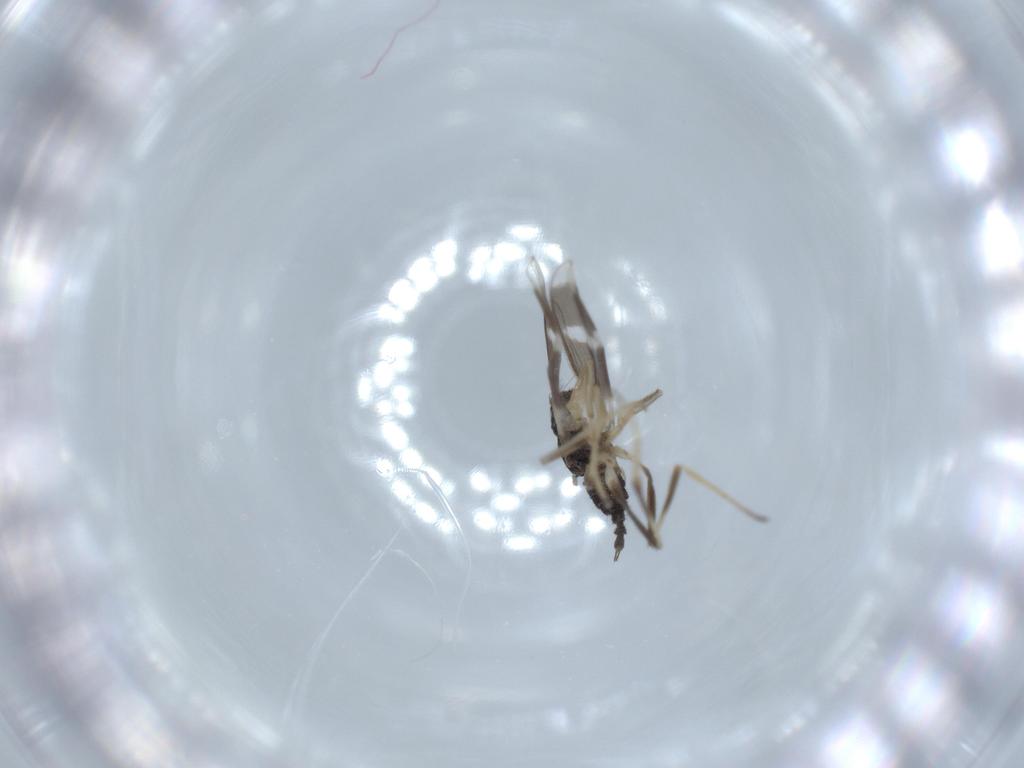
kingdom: Animalia
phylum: Arthropoda
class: Insecta
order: Diptera
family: Hybotidae
